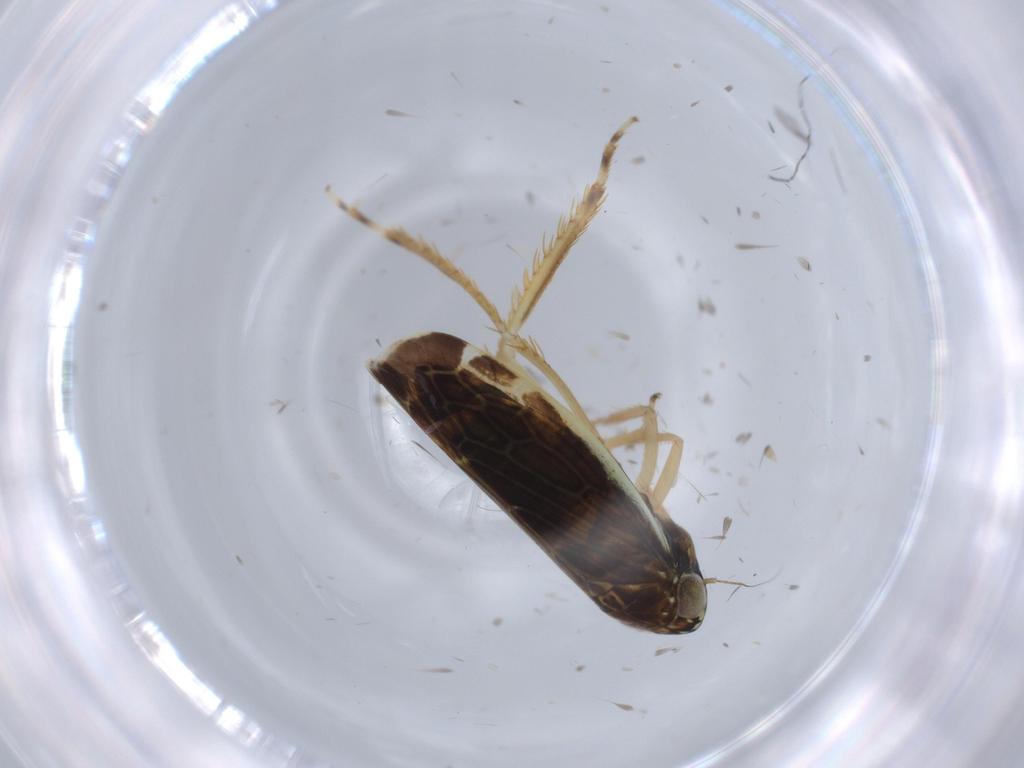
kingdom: Animalia
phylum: Arthropoda
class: Insecta
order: Hemiptera
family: Cicadellidae
